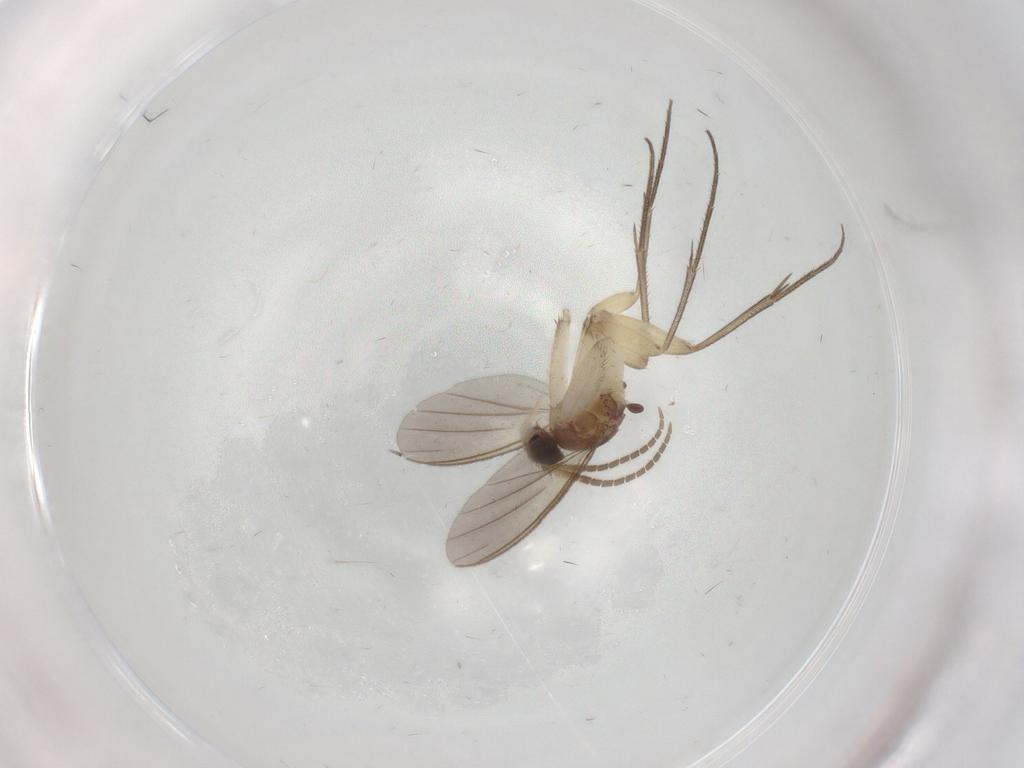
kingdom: Animalia
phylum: Arthropoda
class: Insecta
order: Diptera
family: Mycetophilidae
